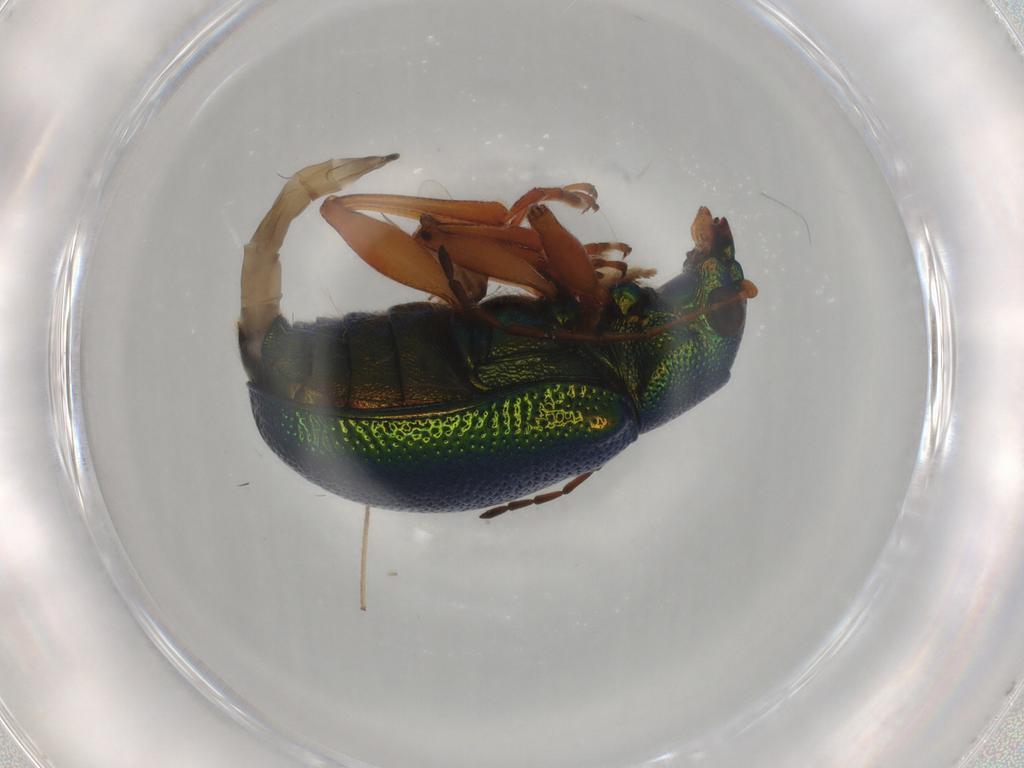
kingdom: Animalia
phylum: Arthropoda
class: Insecta
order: Coleoptera
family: Chrysomelidae
